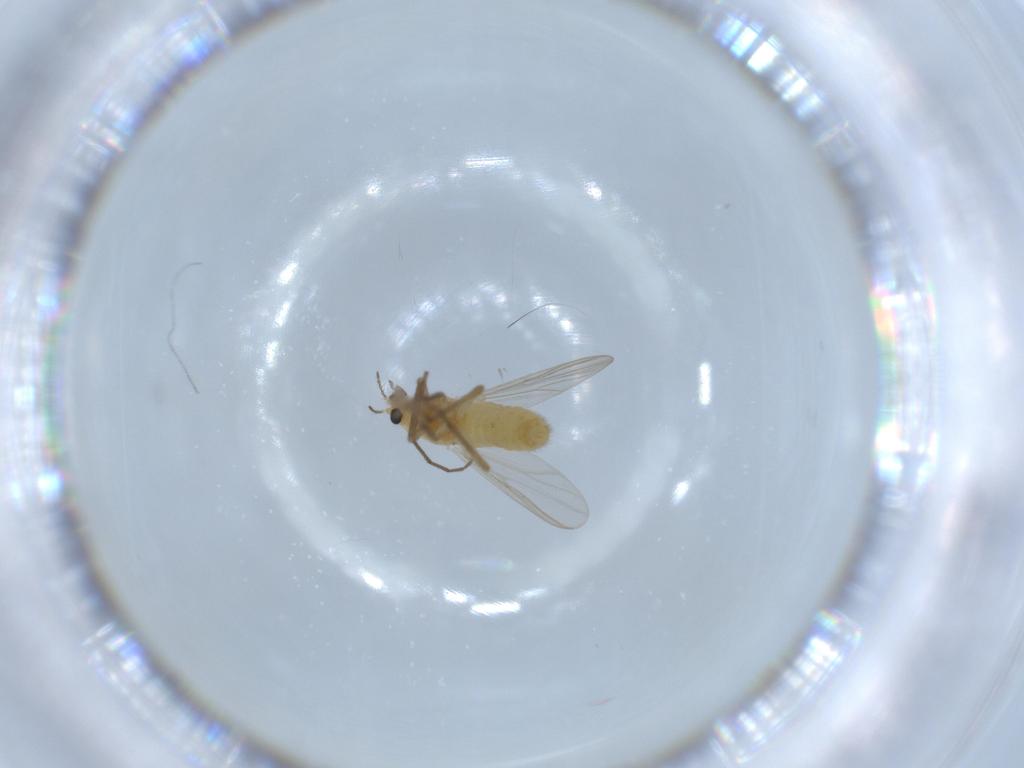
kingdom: Animalia
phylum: Arthropoda
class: Insecta
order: Diptera
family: Chironomidae
